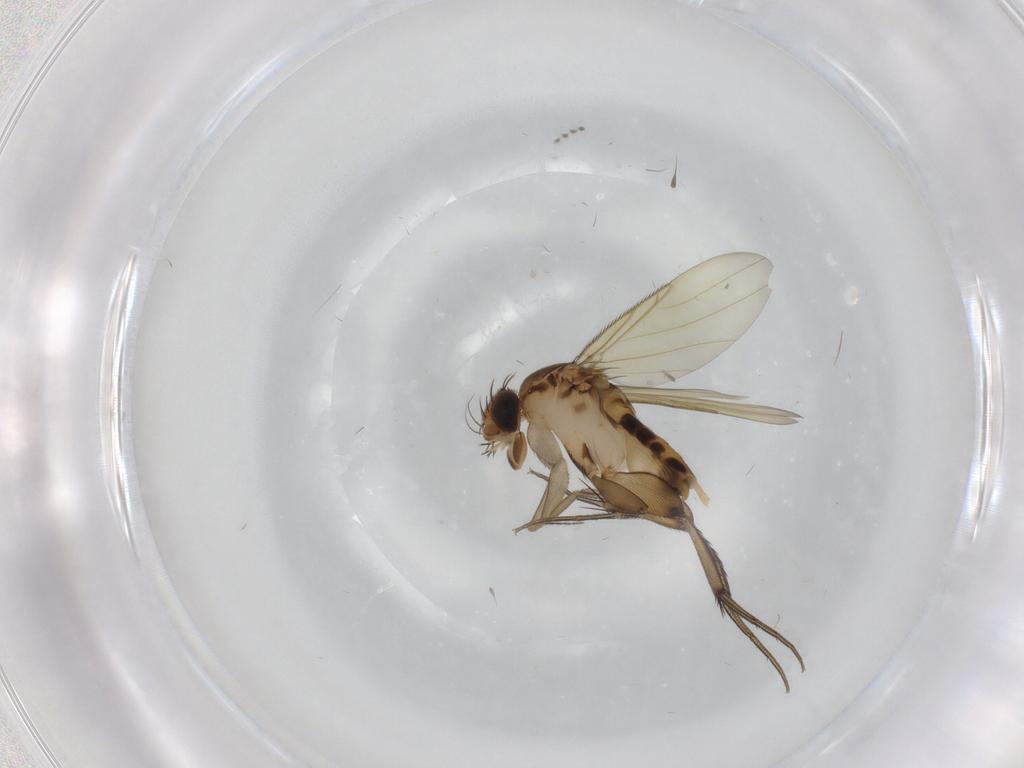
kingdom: Animalia
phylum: Arthropoda
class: Insecta
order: Diptera
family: Ceratopogonidae
